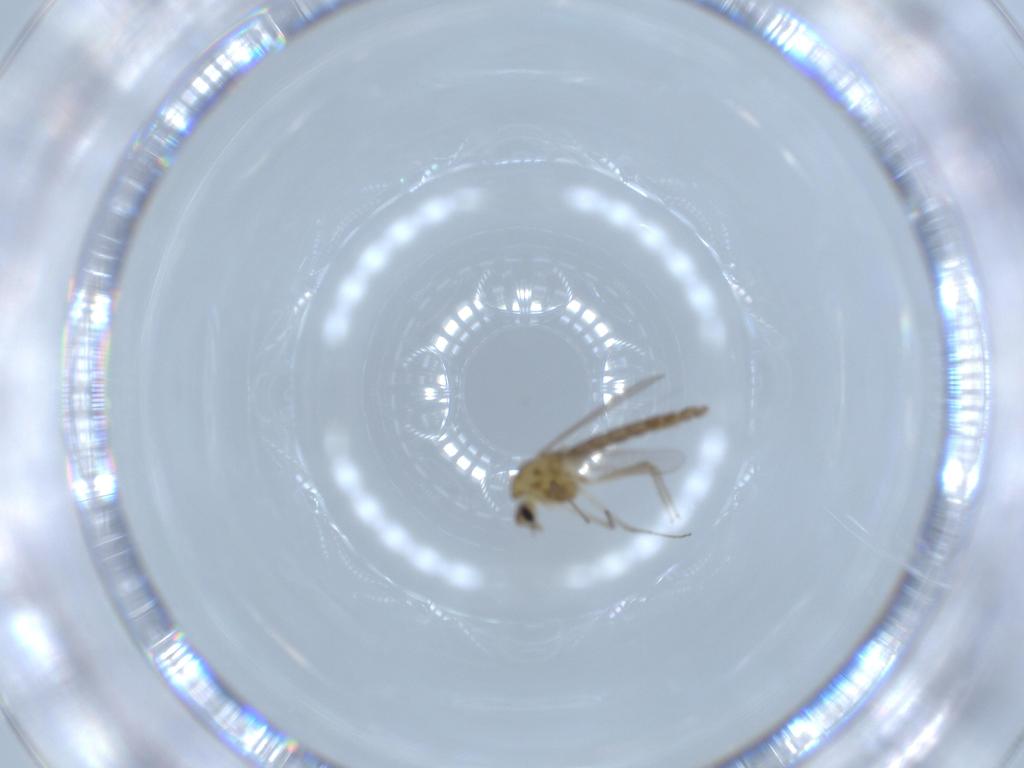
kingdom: Animalia
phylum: Arthropoda
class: Insecta
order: Diptera
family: Chironomidae
